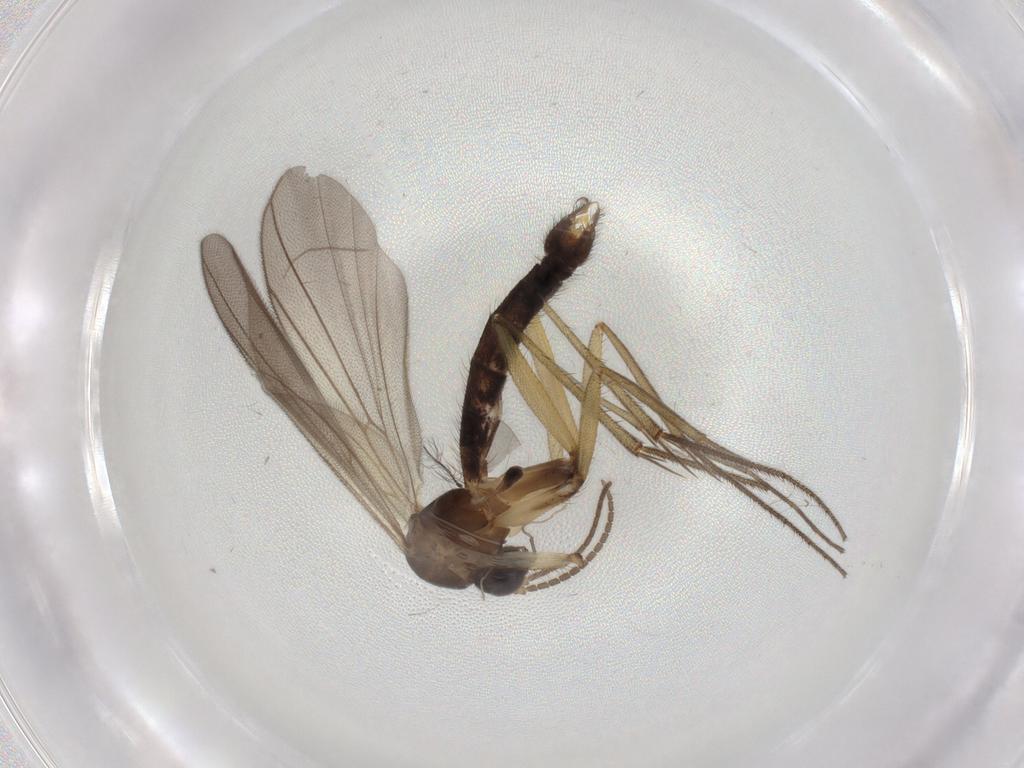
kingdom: Animalia
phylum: Arthropoda
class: Insecta
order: Diptera
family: Mycetophilidae
